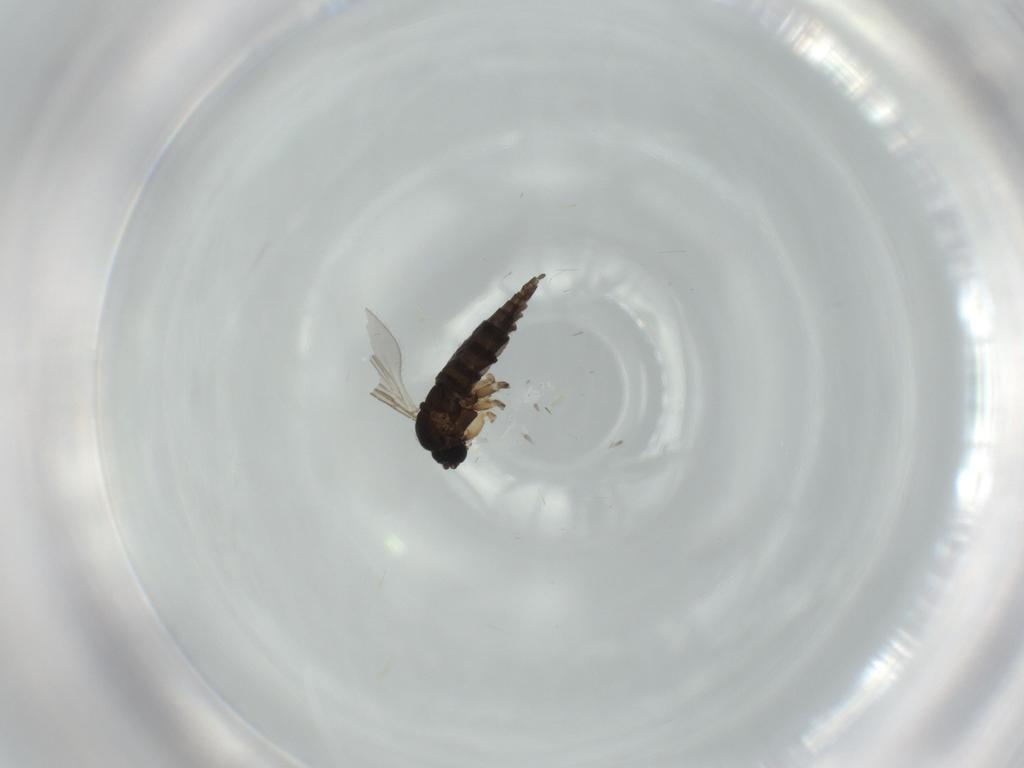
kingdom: Animalia
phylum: Arthropoda
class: Insecta
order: Diptera
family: Sciaridae
